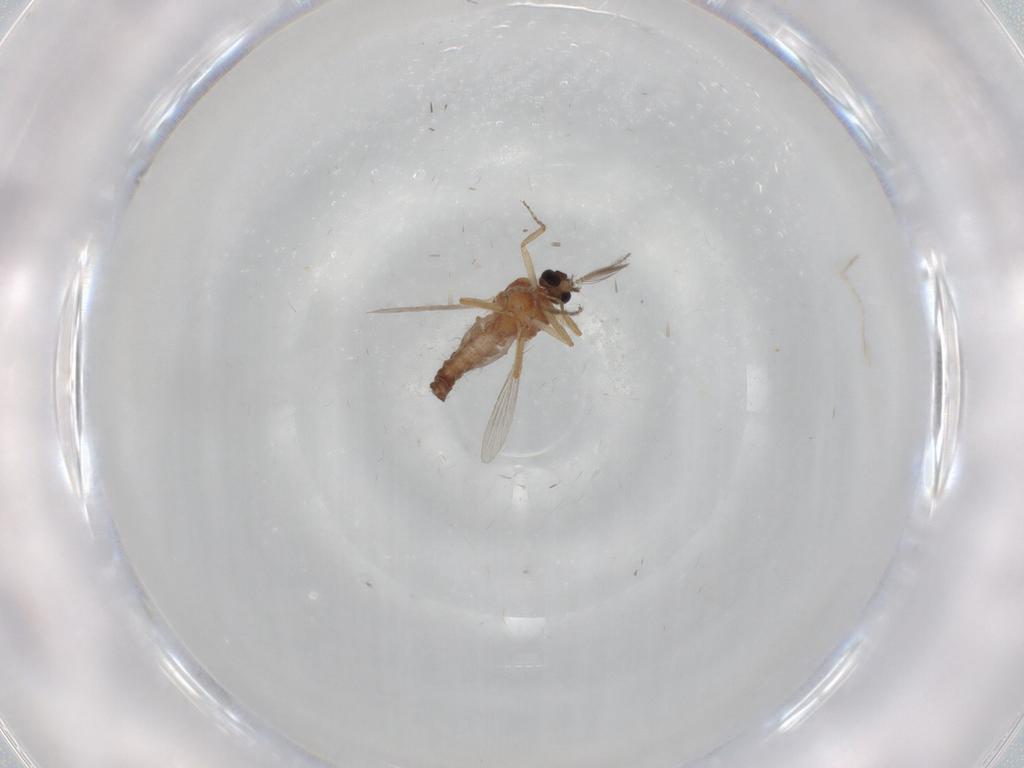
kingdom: Animalia
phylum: Arthropoda
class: Insecta
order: Diptera
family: Ceratopogonidae
